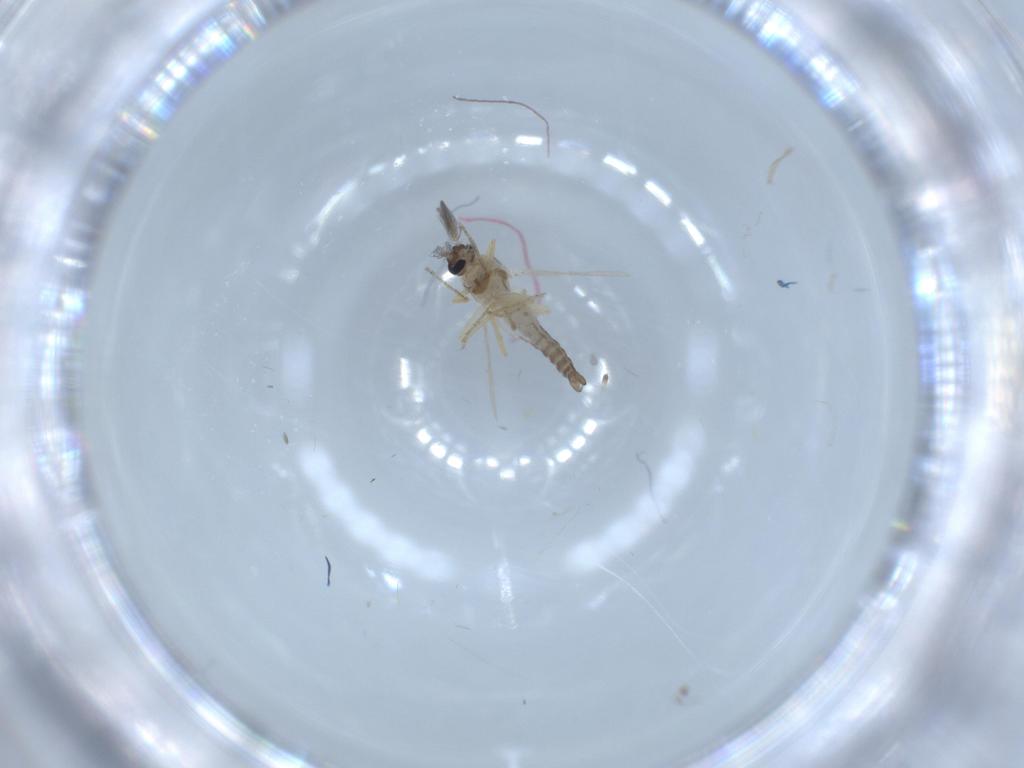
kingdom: Animalia
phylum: Arthropoda
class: Insecta
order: Diptera
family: Ceratopogonidae
